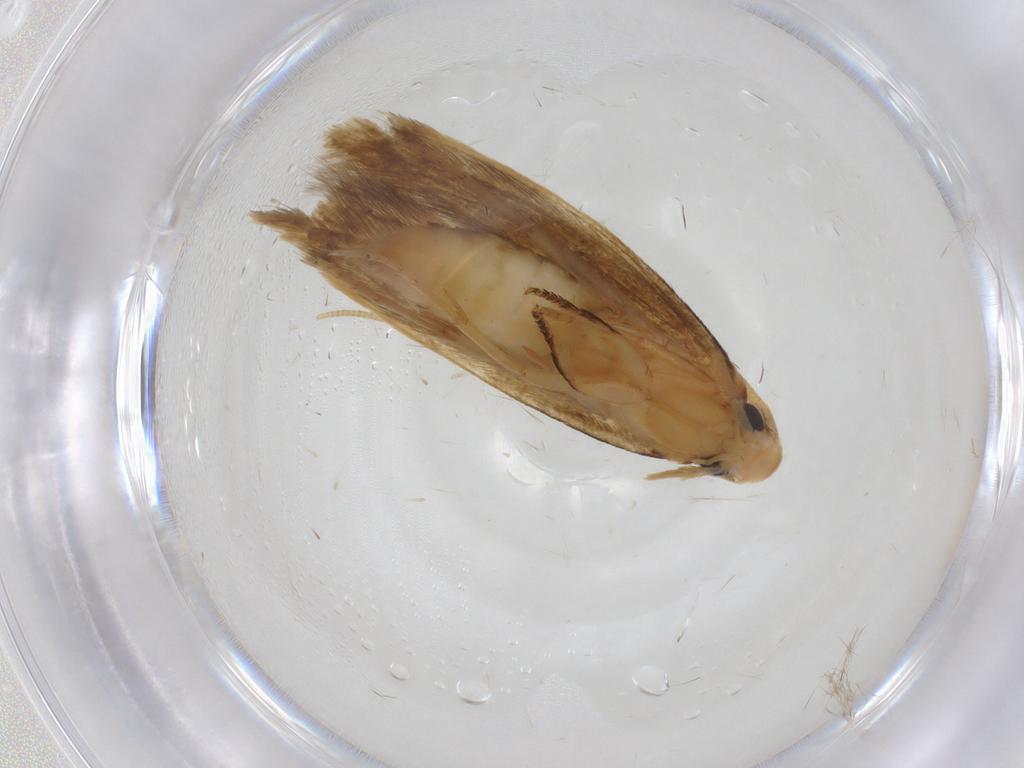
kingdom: Animalia
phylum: Arthropoda
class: Insecta
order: Lepidoptera
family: Tineidae
